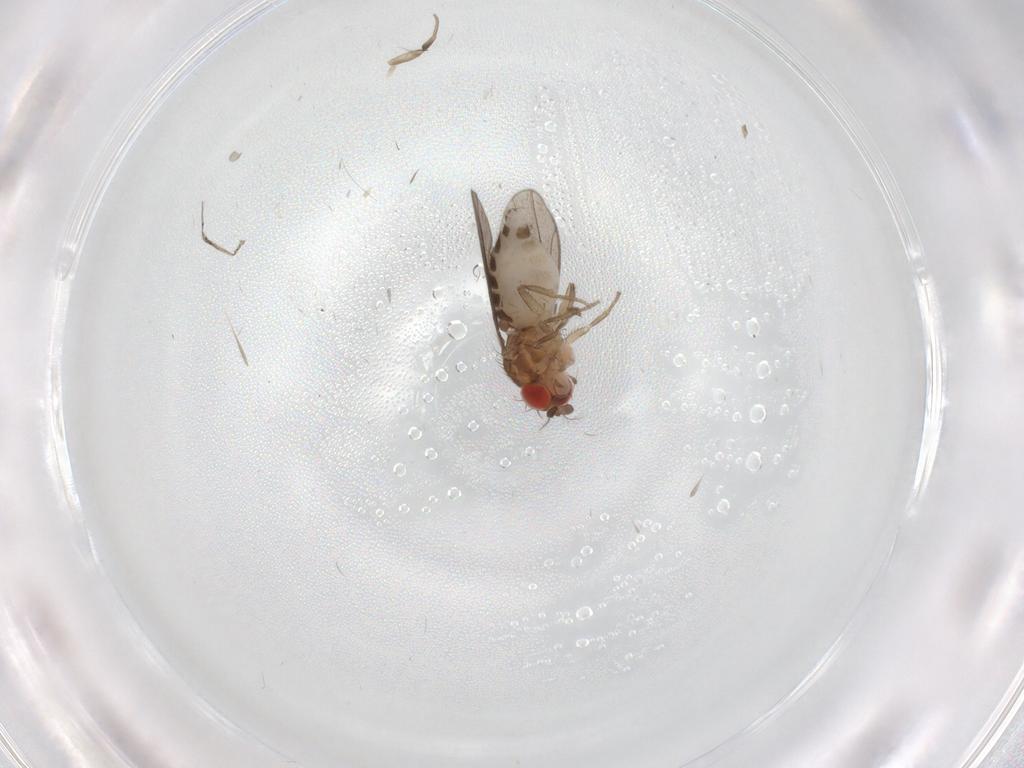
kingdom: Animalia
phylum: Arthropoda
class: Insecta
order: Diptera
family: Phoridae
